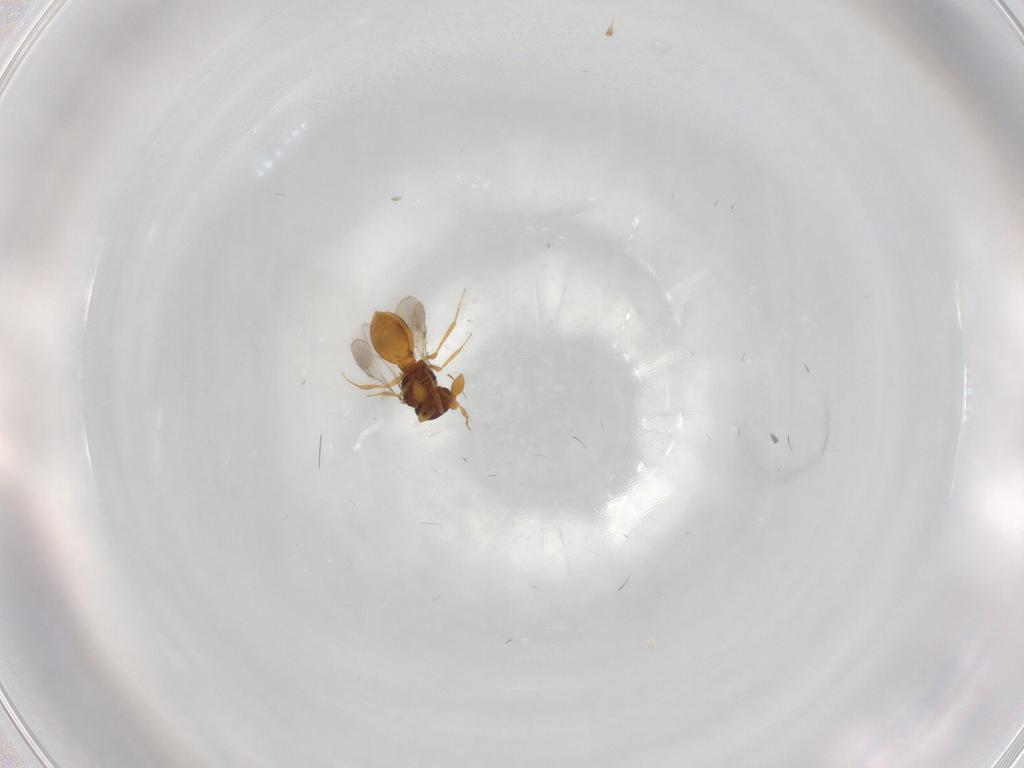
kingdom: Animalia
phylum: Arthropoda
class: Insecta
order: Hymenoptera
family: Scelionidae
